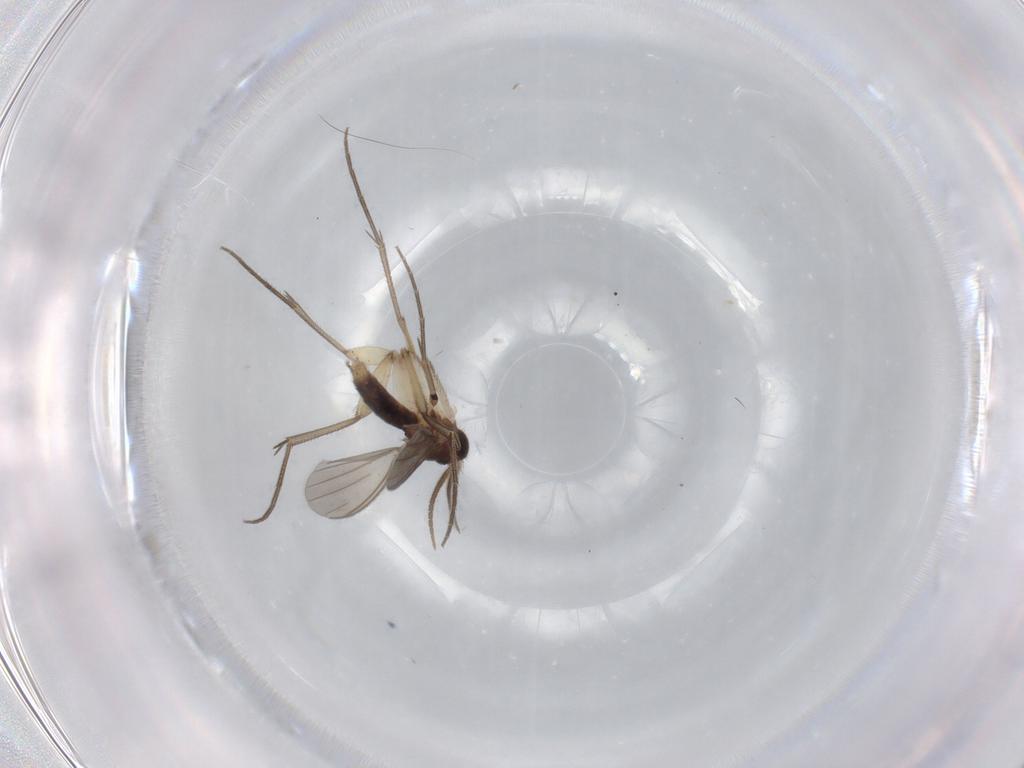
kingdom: Animalia
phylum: Arthropoda
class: Insecta
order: Diptera
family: Mycetophilidae
